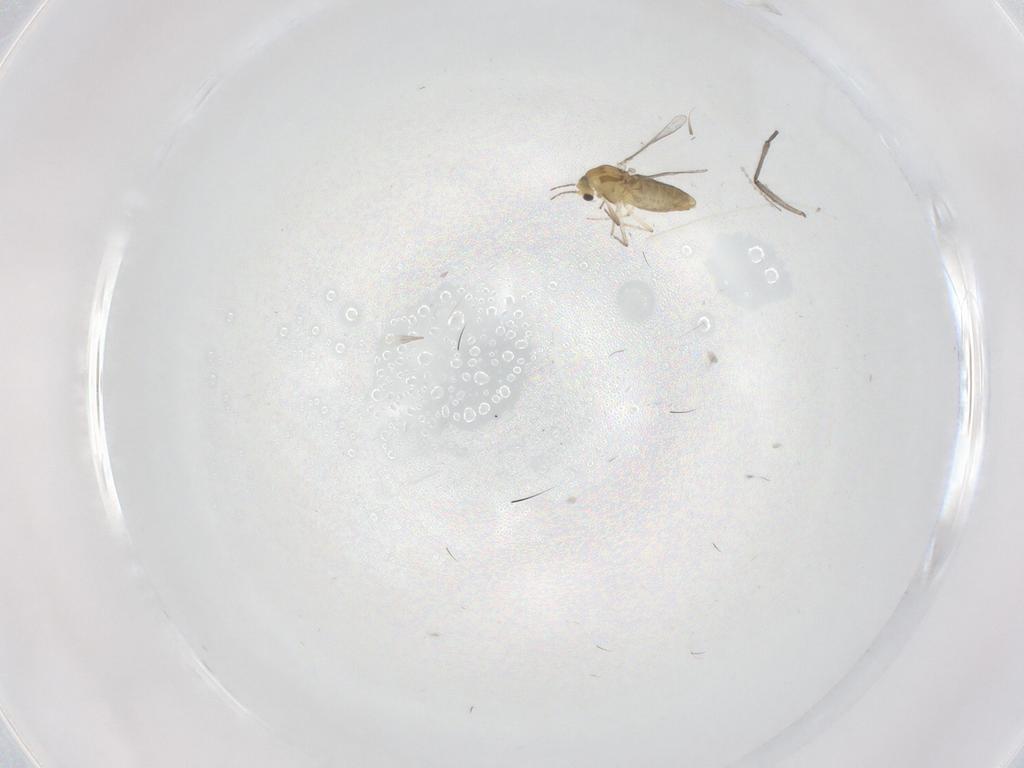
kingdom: Animalia
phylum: Arthropoda
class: Insecta
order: Diptera
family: Chironomidae
